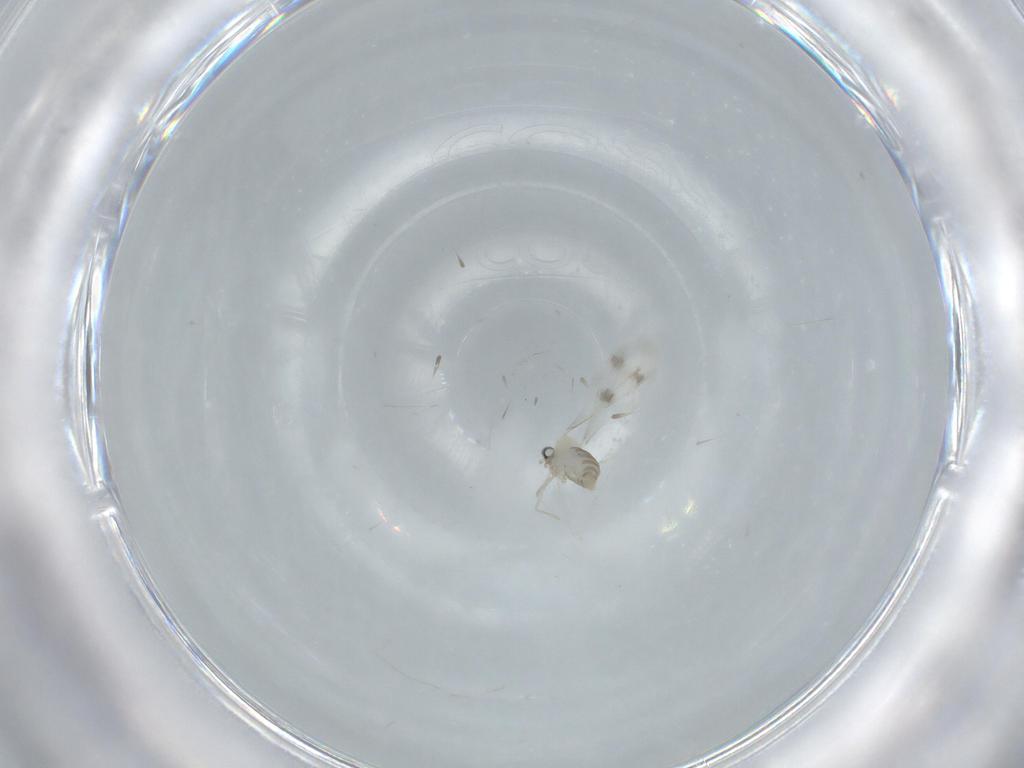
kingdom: Animalia
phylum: Arthropoda
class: Insecta
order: Diptera
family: Cecidomyiidae
